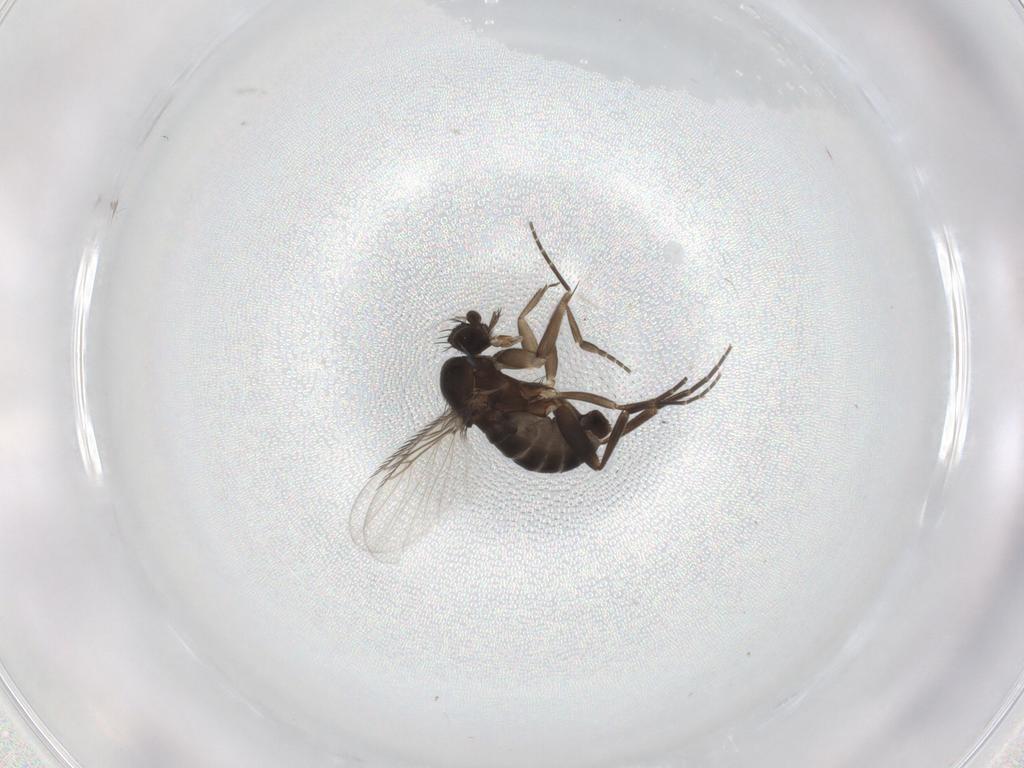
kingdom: Animalia
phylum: Arthropoda
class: Insecta
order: Diptera
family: Phoridae
